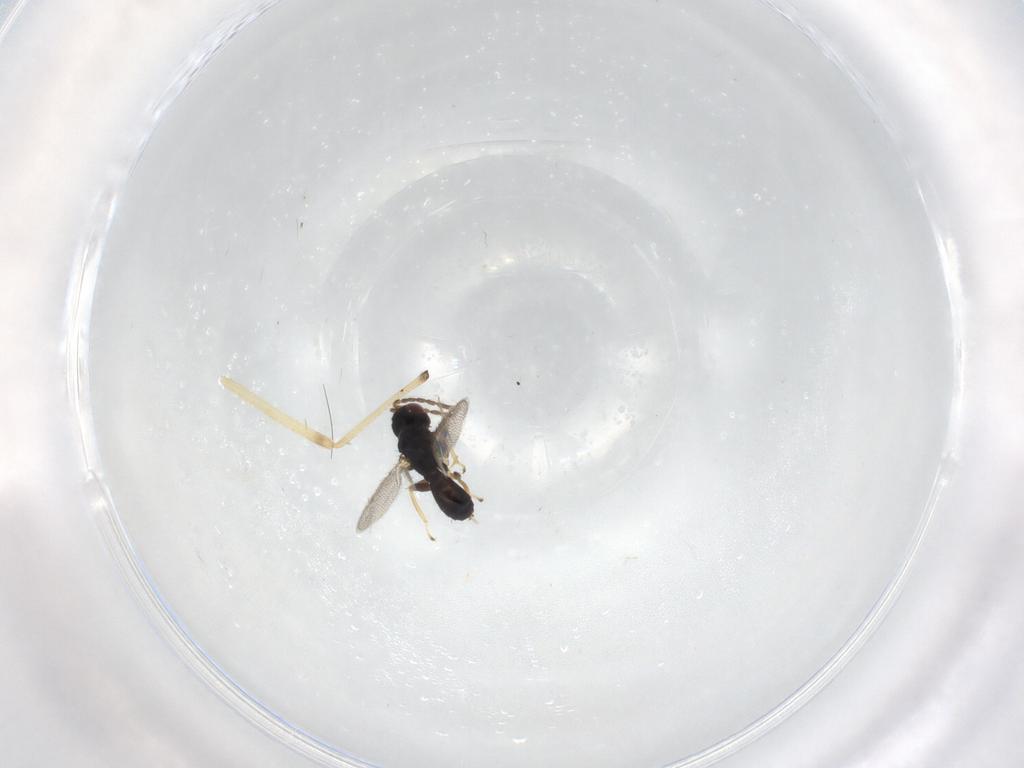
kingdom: Animalia
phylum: Arthropoda
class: Insecta
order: Hymenoptera
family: Eulophidae
